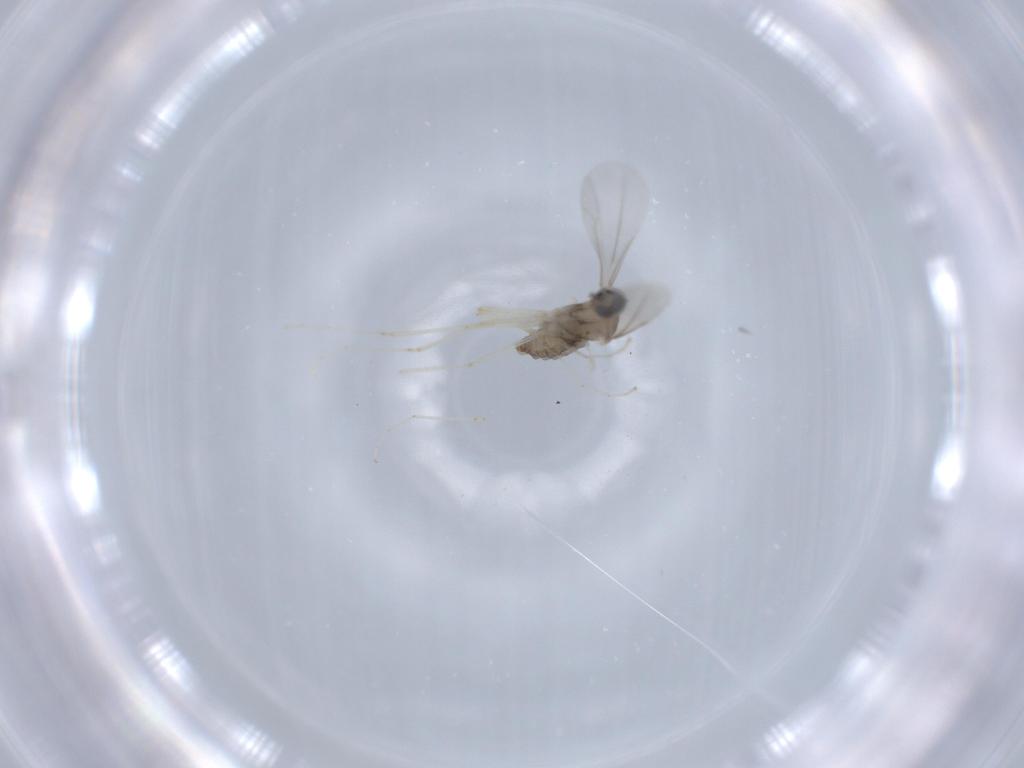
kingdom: Animalia
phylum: Arthropoda
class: Insecta
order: Diptera
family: Cecidomyiidae
